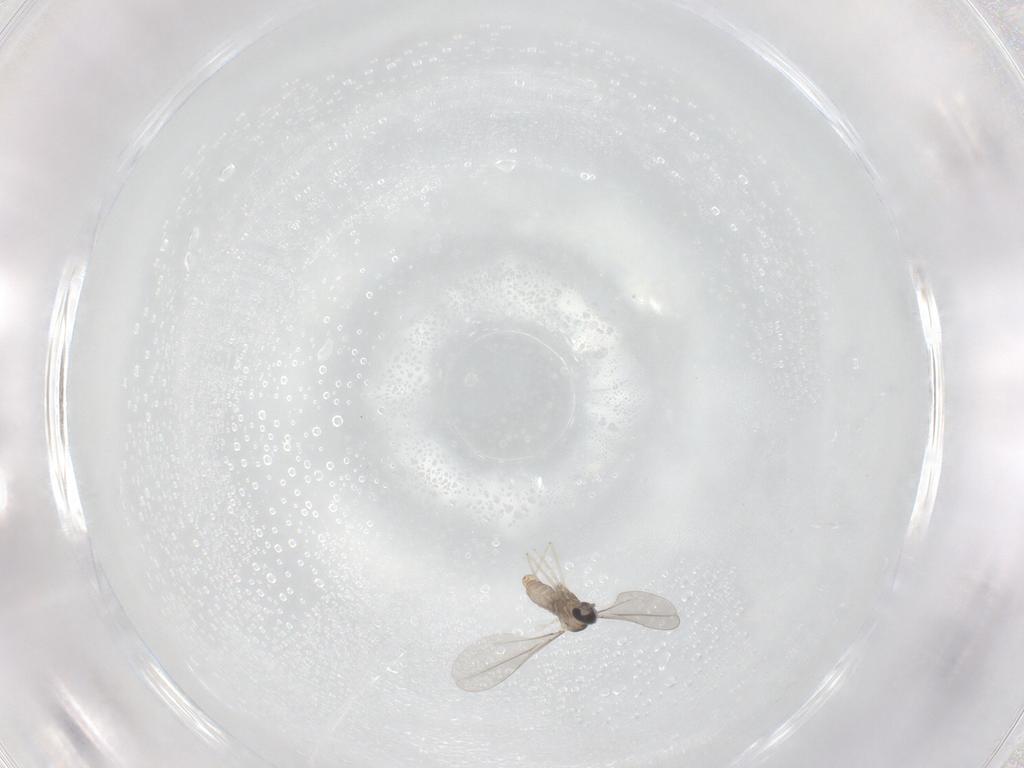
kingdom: Animalia
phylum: Arthropoda
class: Insecta
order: Diptera
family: Cecidomyiidae
